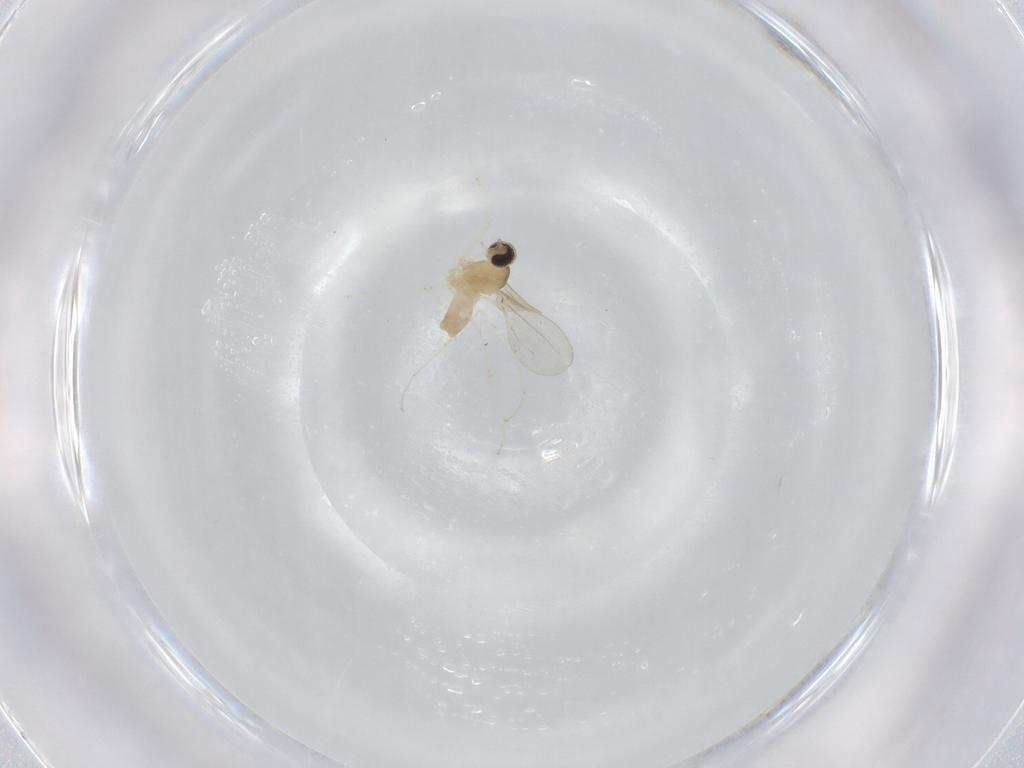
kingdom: Animalia
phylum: Arthropoda
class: Insecta
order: Diptera
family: Cecidomyiidae
